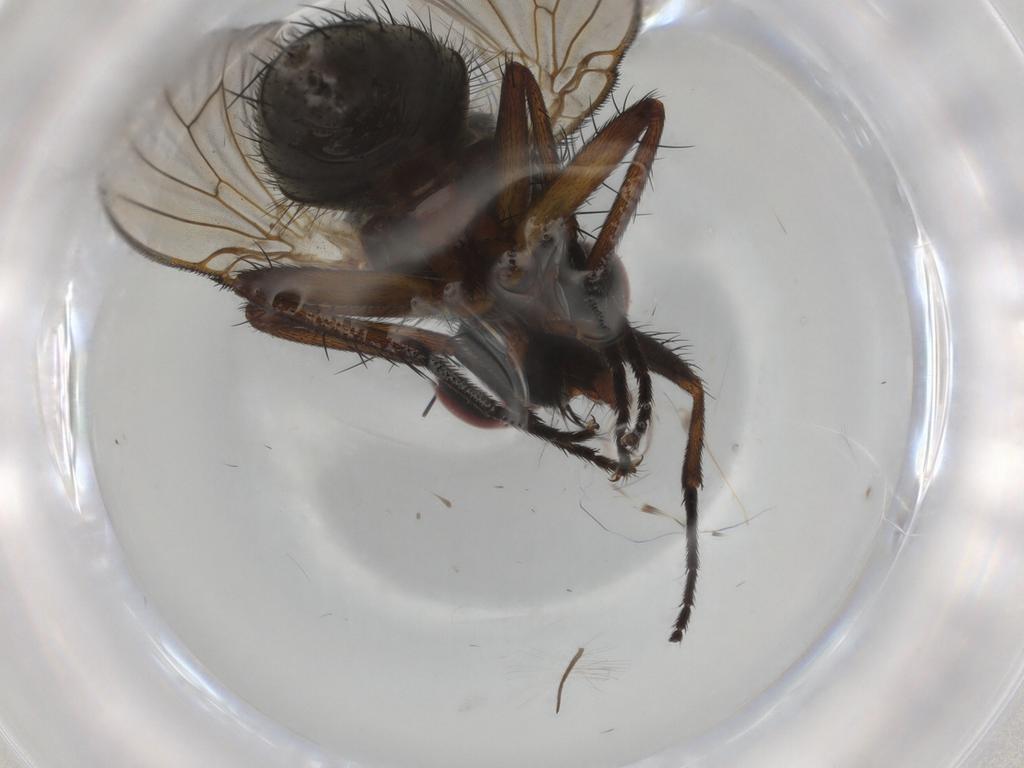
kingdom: Animalia
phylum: Arthropoda
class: Insecta
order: Diptera
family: Muscidae
